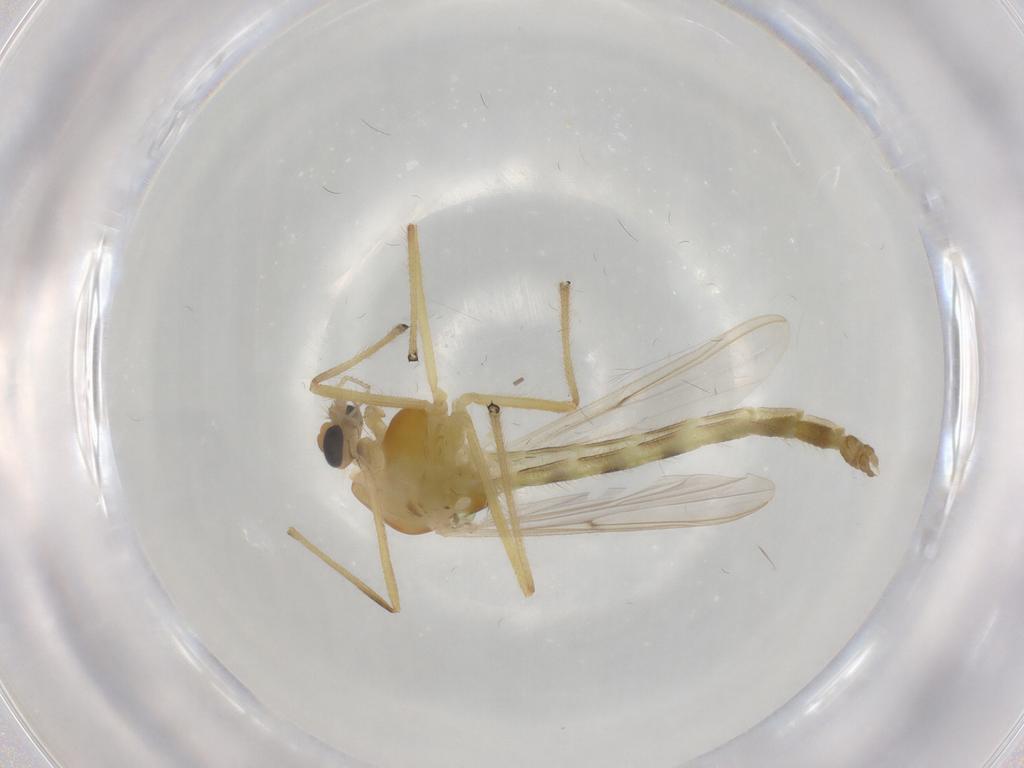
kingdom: Animalia
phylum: Arthropoda
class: Insecta
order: Diptera
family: Chironomidae
